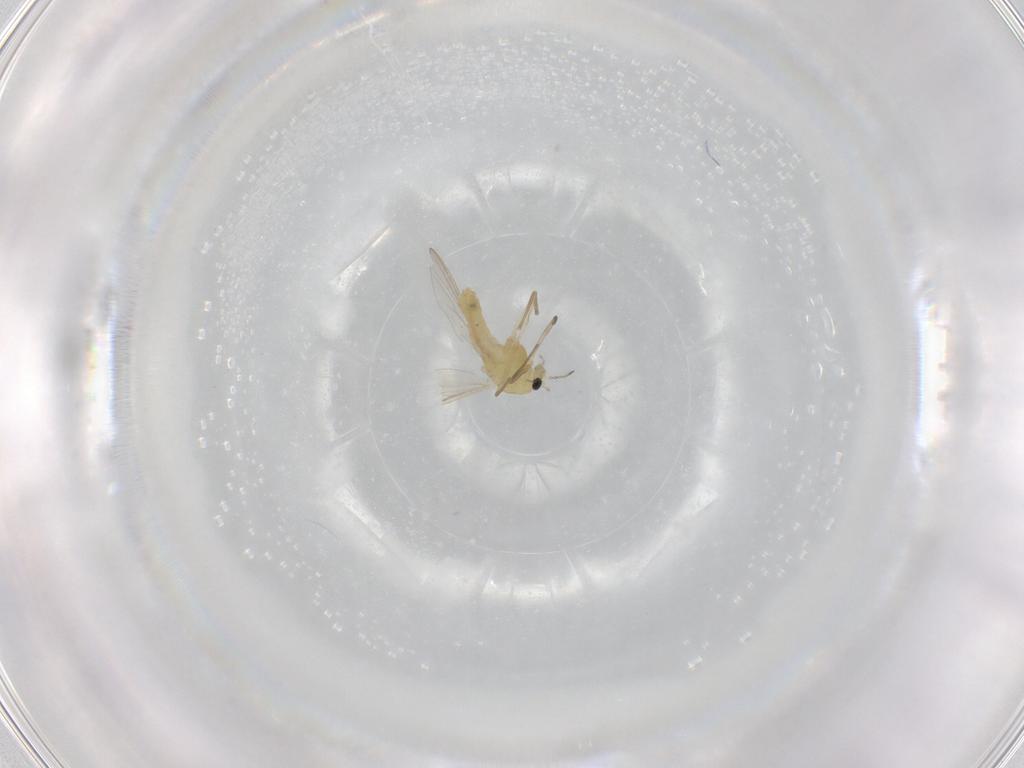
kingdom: Animalia
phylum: Arthropoda
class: Insecta
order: Diptera
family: Chironomidae
